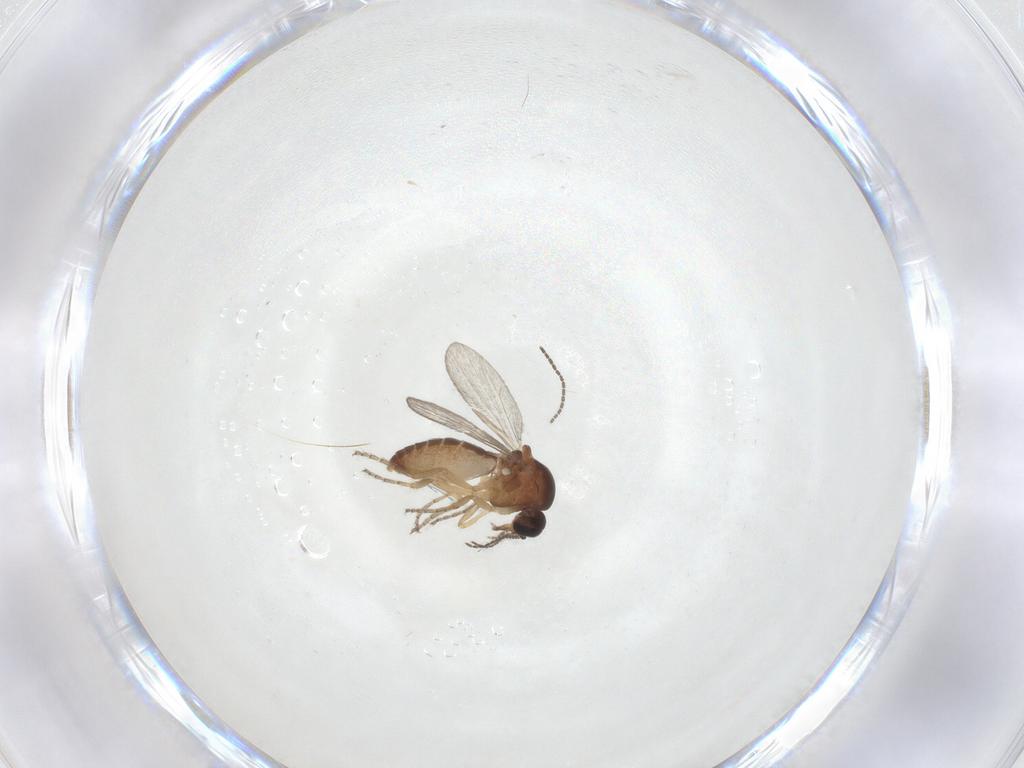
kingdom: Animalia
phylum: Arthropoda
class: Insecta
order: Diptera
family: Ceratopogonidae
